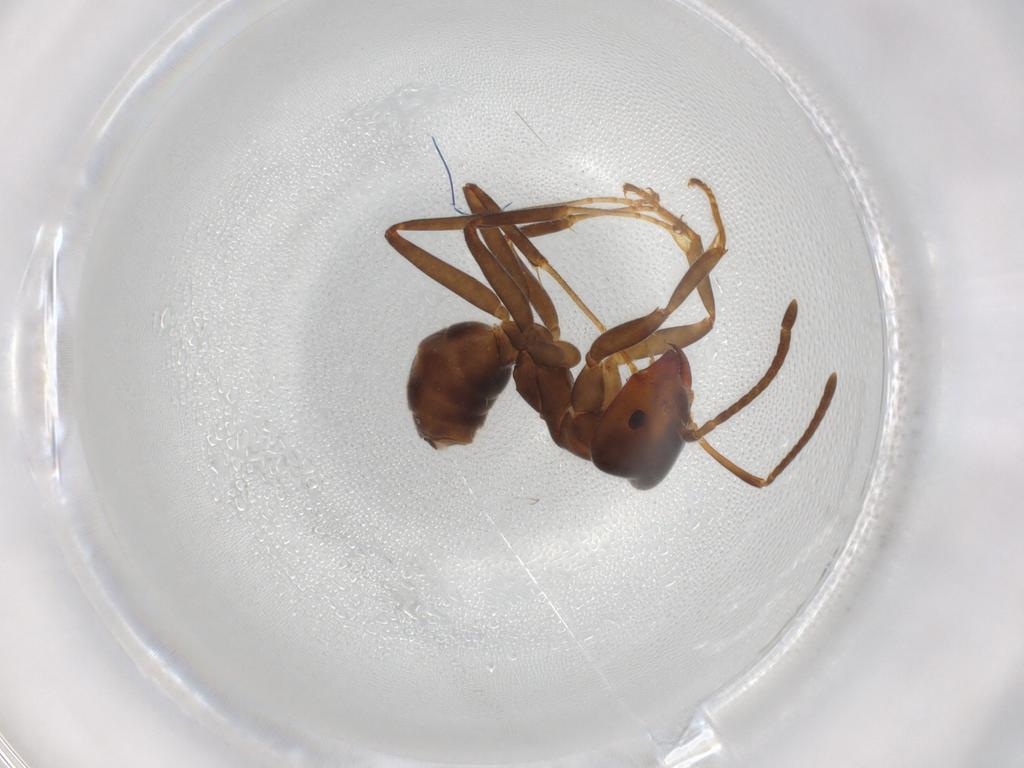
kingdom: Animalia
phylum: Arthropoda
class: Insecta
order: Hymenoptera
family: Formicidae
